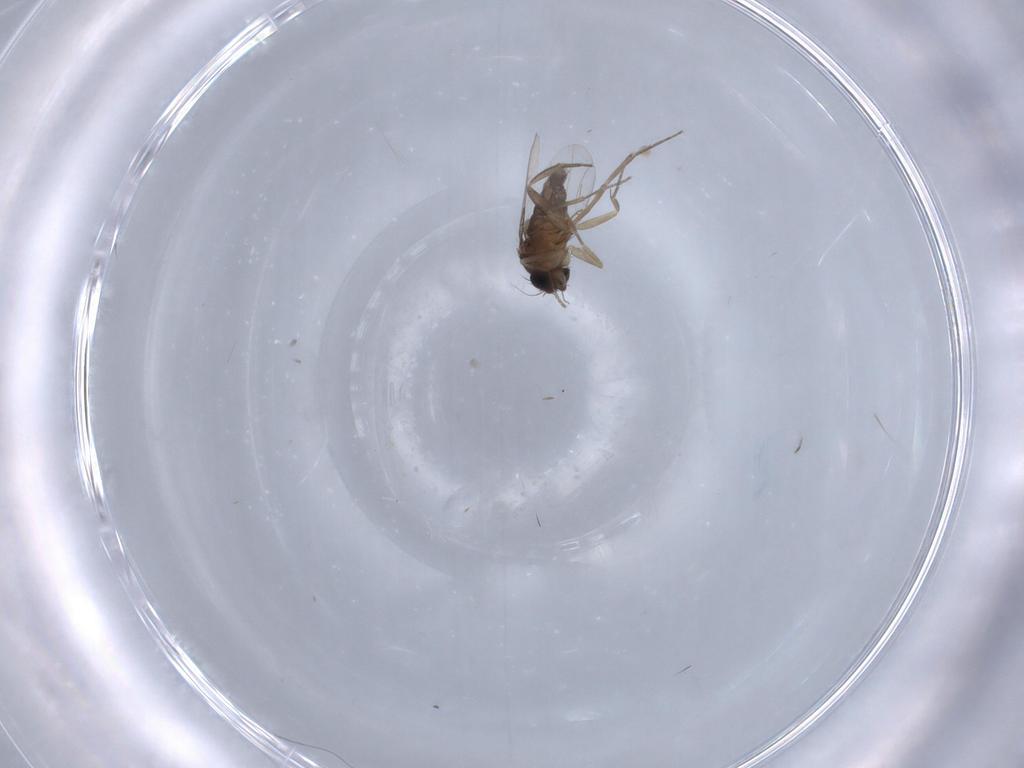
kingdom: Animalia
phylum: Arthropoda
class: Insecta
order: Diptera
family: Phoridae
